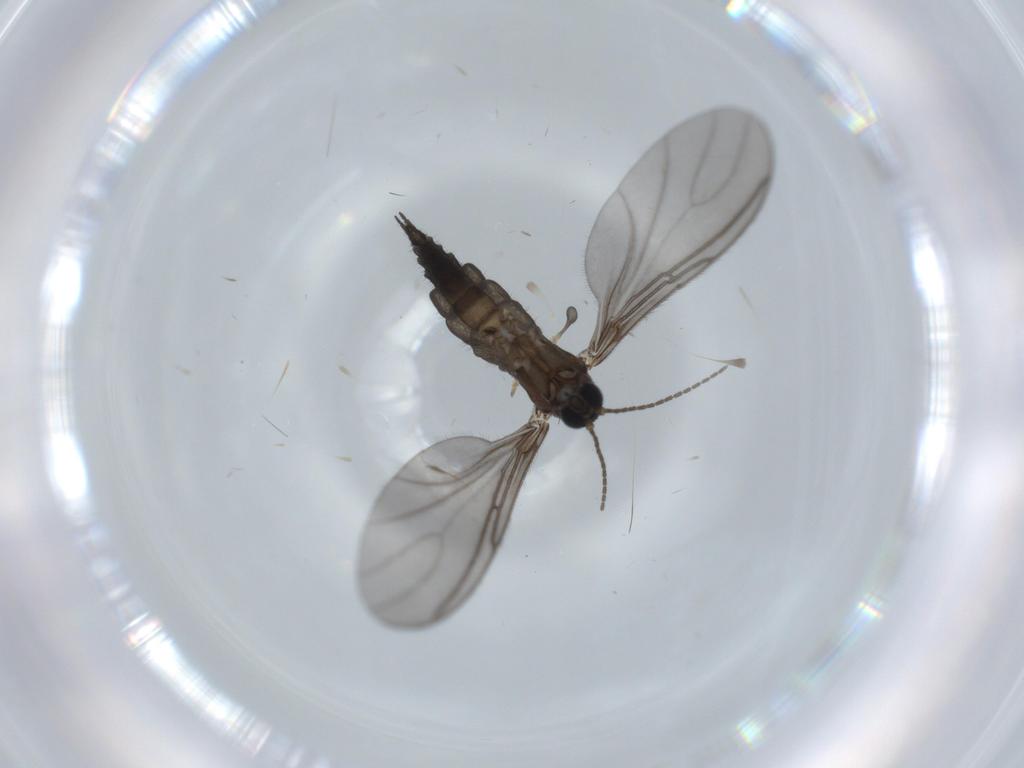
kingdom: Animalia
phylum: Arthropoda
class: Insecta
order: Diptera
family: Sciaridae
